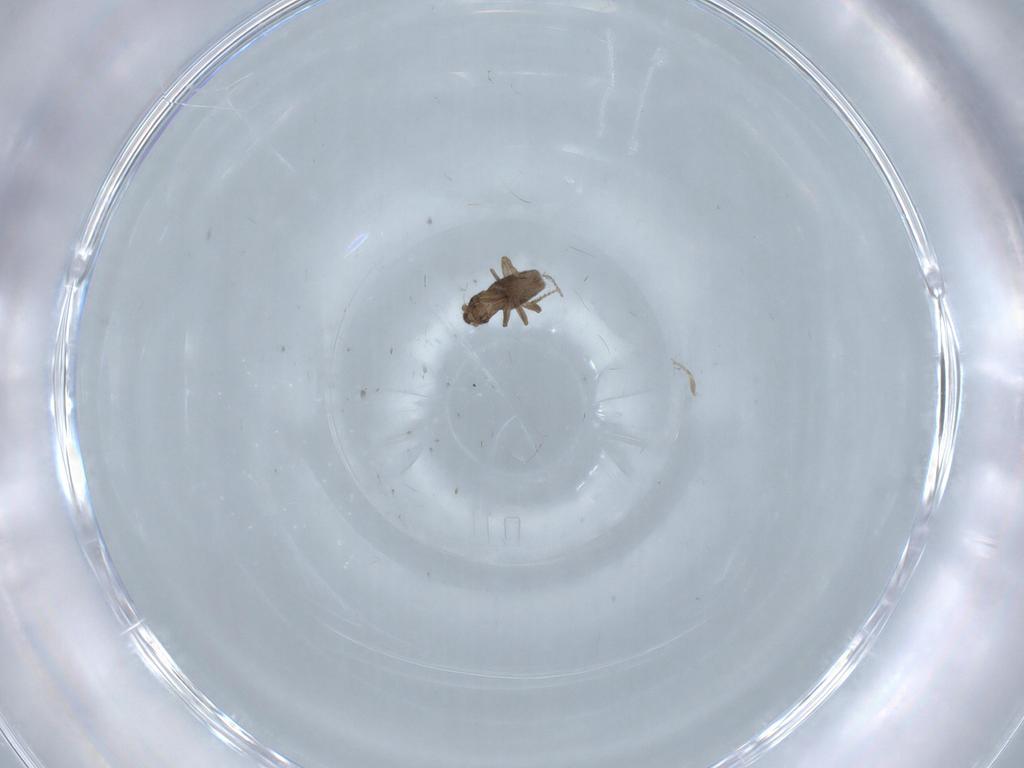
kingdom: Animalia
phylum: Arthropoda
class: Insecta
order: Diptera
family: Phoridae
